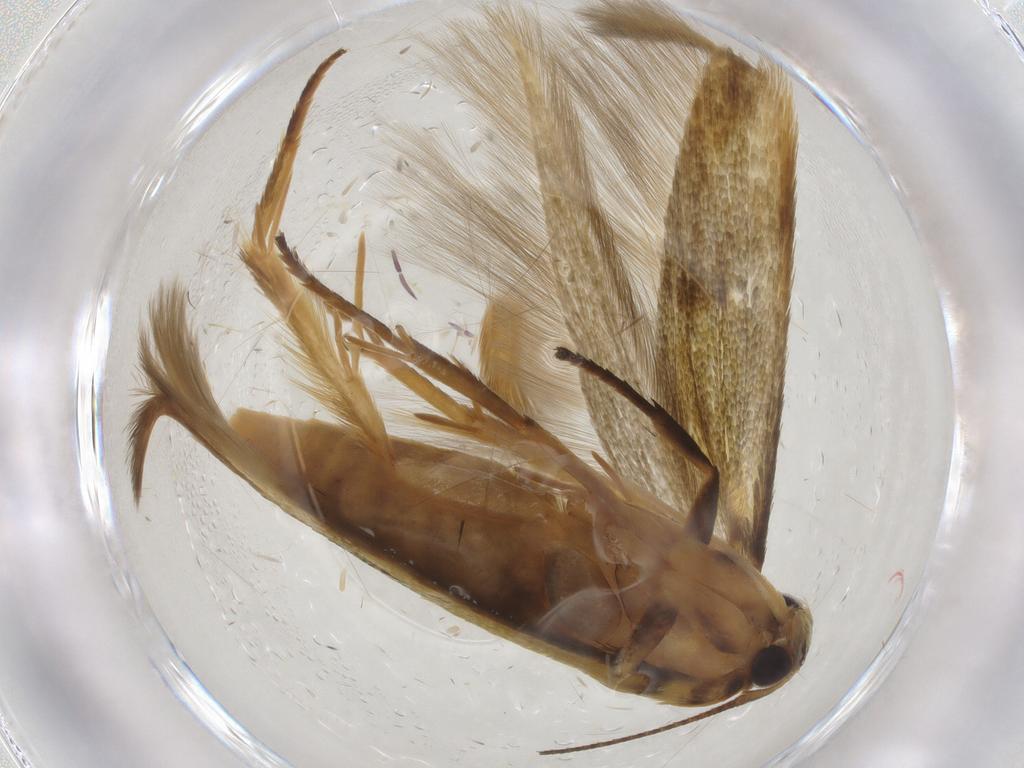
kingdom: Animalia
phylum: Arthropoda
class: Insecta
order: Lepidoptera
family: Stathmopodidae
